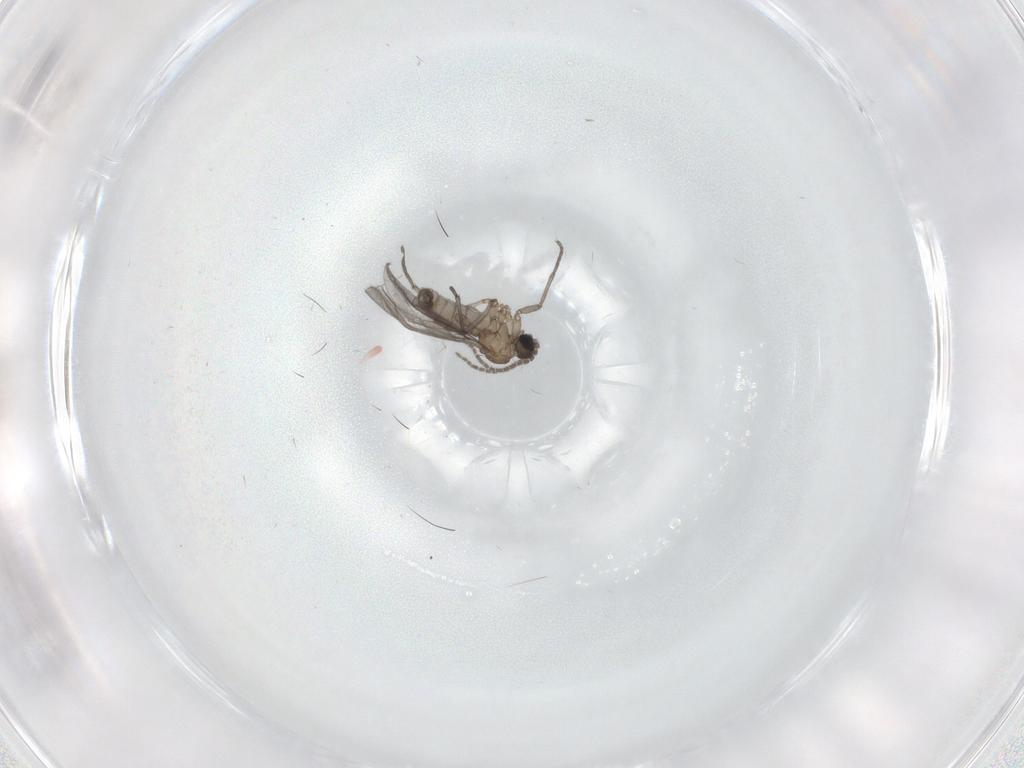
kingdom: Animalia
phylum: Arthropoda
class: Insecta
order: Diptera
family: Sciaridae
